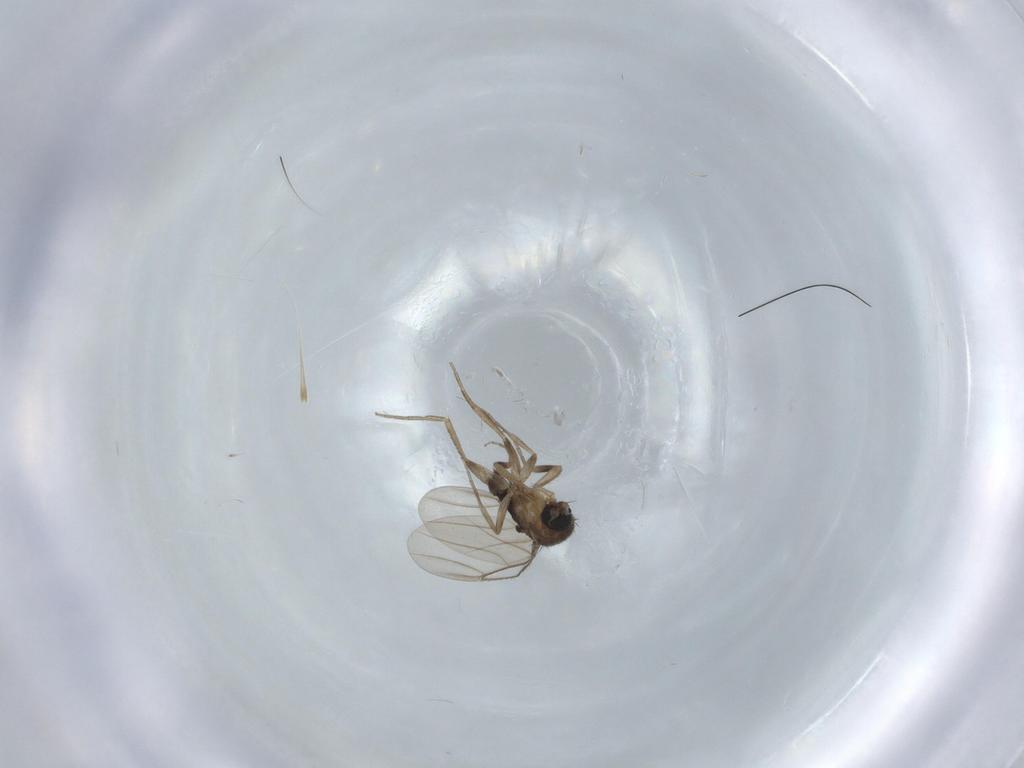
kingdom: Animalia
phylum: Arthropoda
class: Insecta
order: Diptera
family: Phoridae
